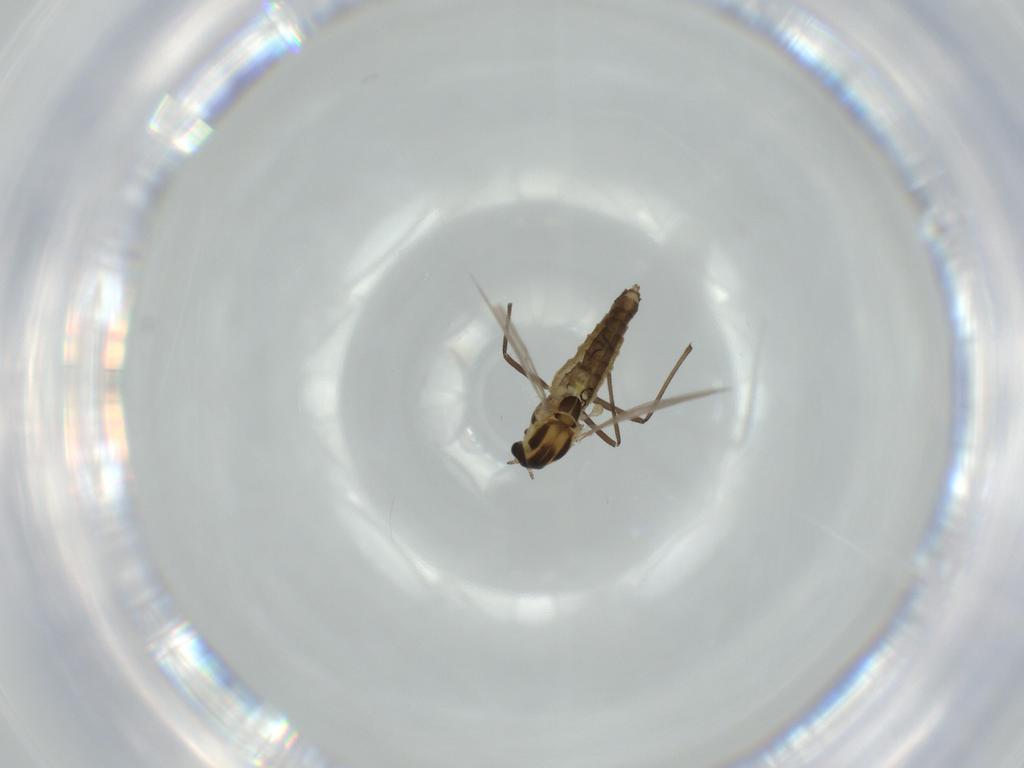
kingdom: Animalia
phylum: Arthropoda
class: Insecta
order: Diptera
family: Chironomidae
